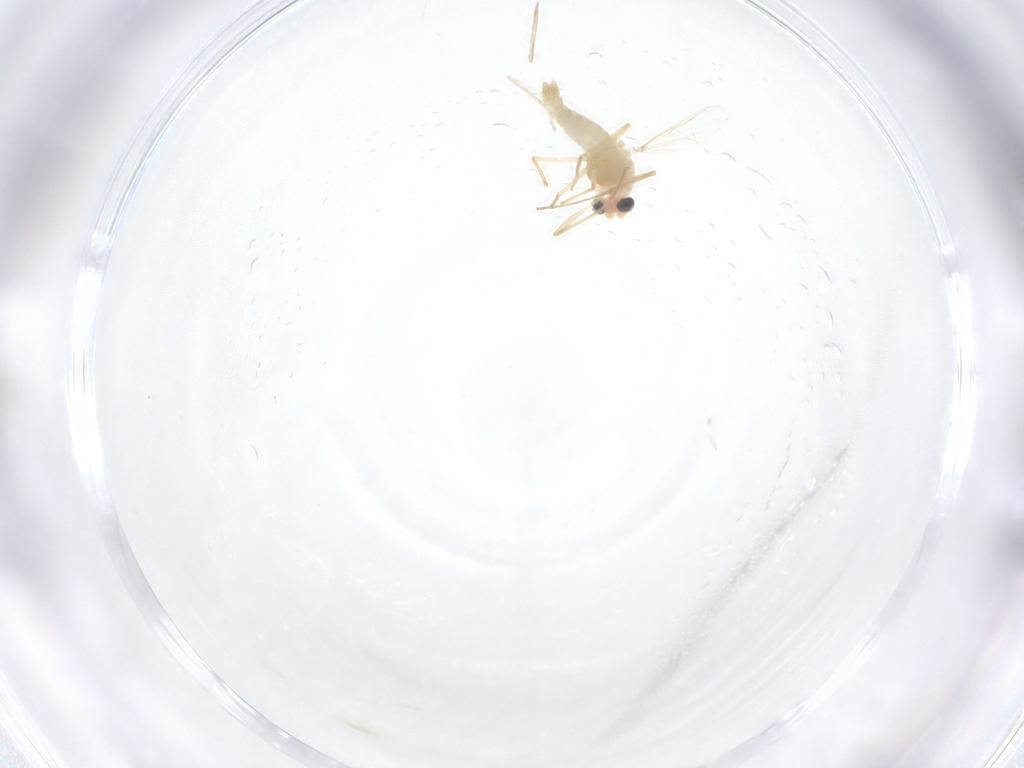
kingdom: Animalia
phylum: Arthropoda
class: Insecta
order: Diptera
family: Chironomidae
